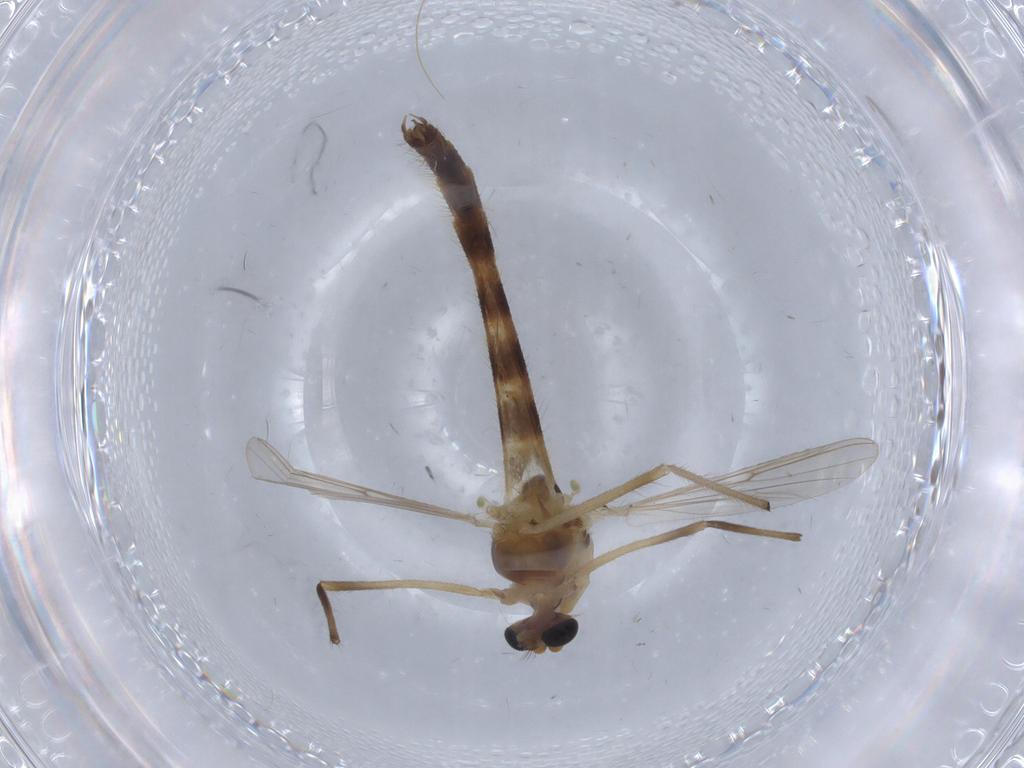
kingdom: Animalia
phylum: Arthropoda
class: Insecta
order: Diptera
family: Chironomidae
